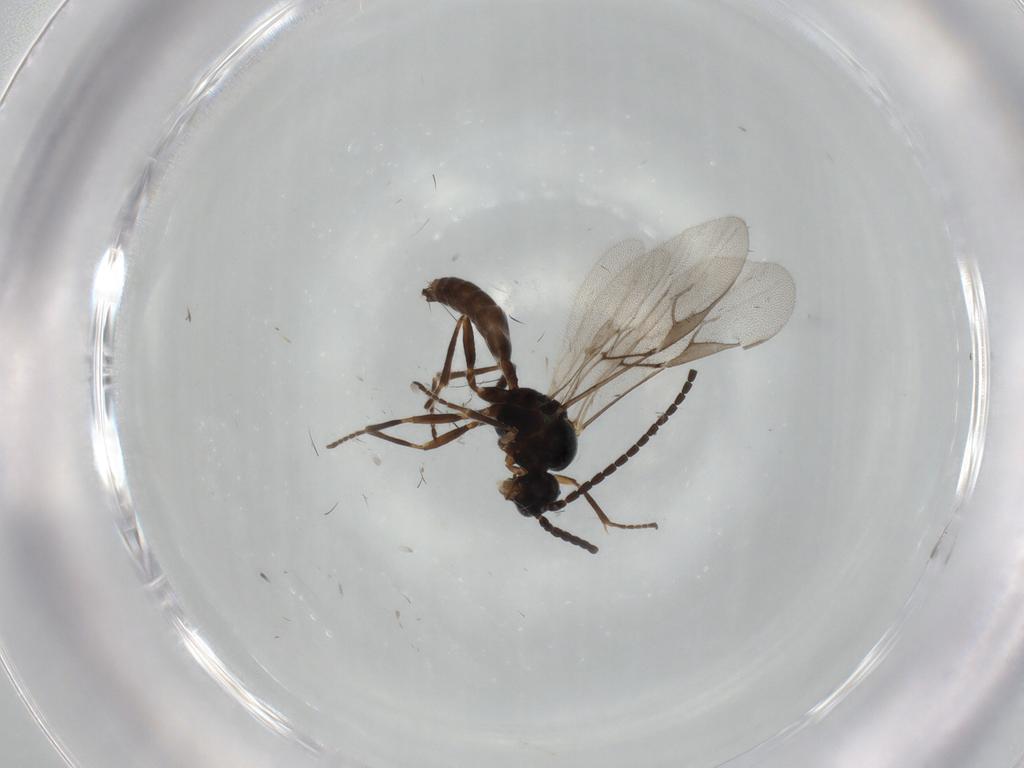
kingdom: Animalia
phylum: Arthropoda
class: Insecta
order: Hymenoptera
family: Braconidae
